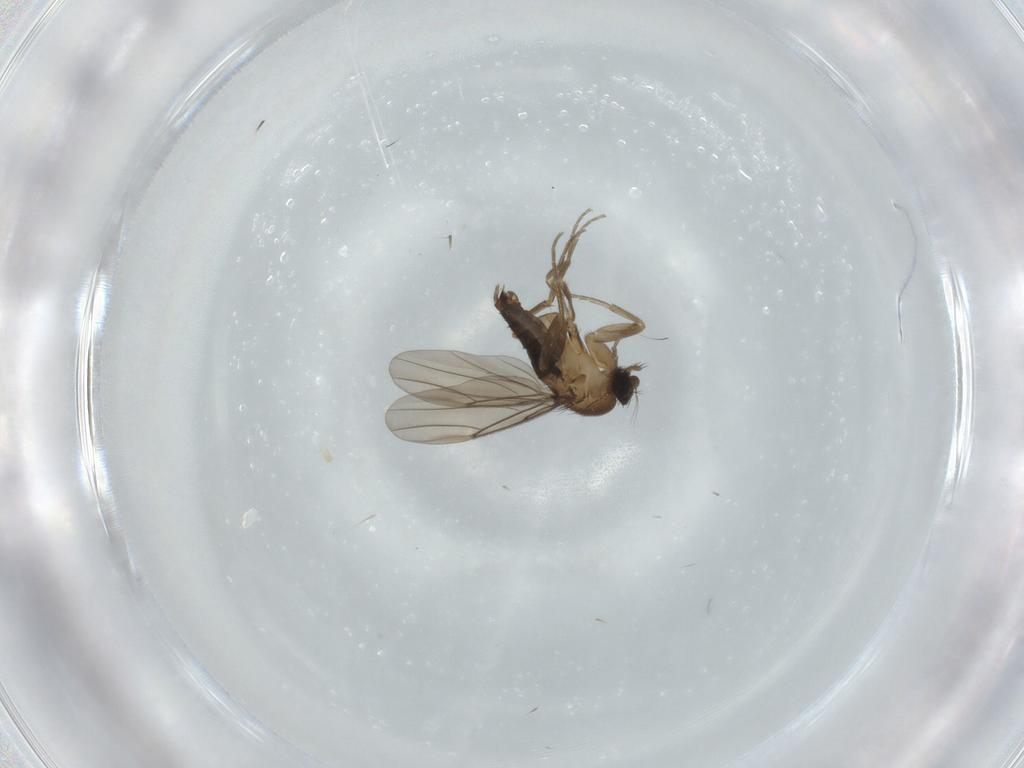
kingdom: Animalia
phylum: Arthropoda
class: Insecta
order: Diptera
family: Phoridae
